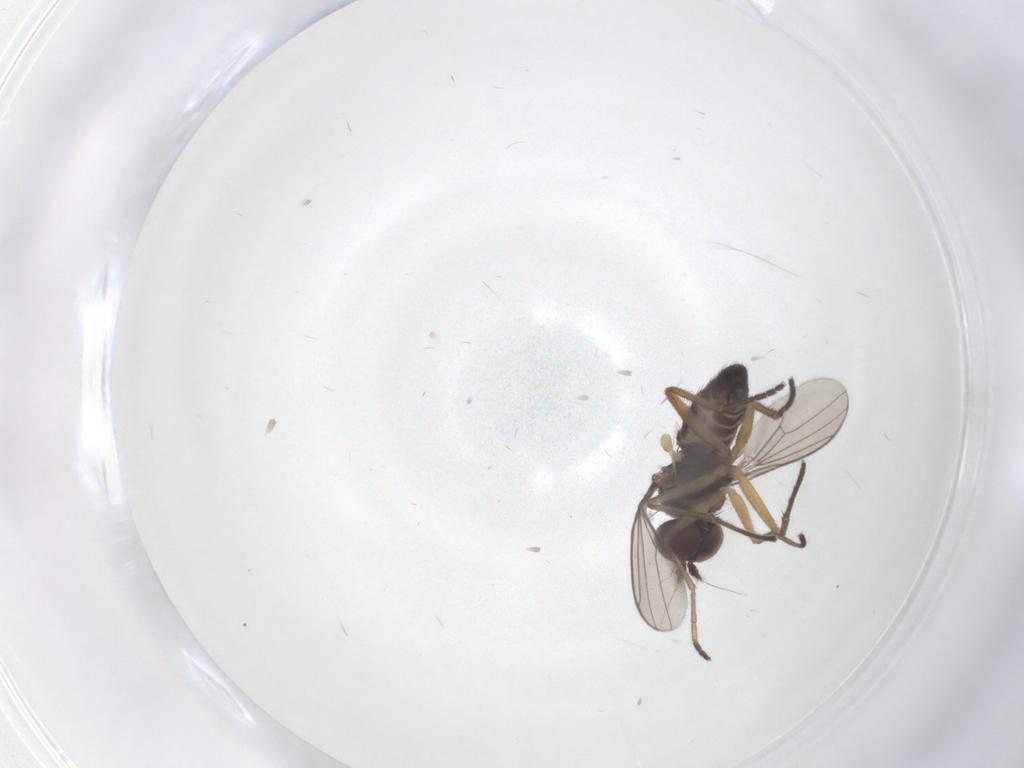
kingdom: Animalia
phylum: Arthropoda
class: Insecta
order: Diptera
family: Dolichopodidae
